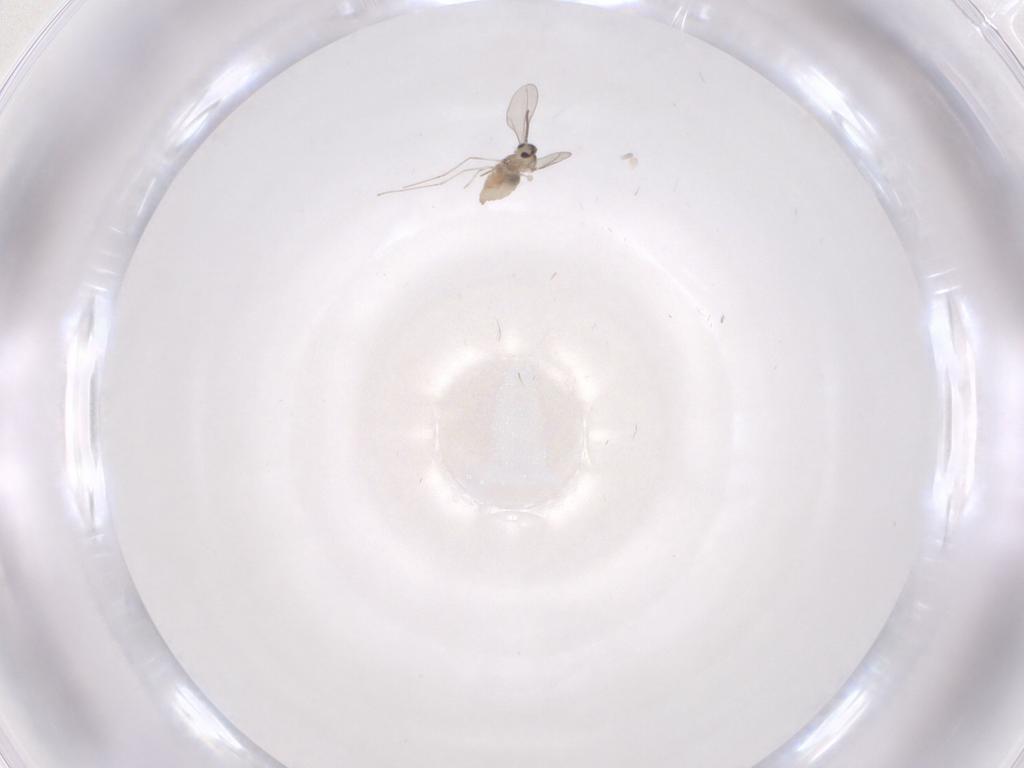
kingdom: Animalia
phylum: Arthropoda
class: Insecta
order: Diptera
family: Cecidomyiidae
